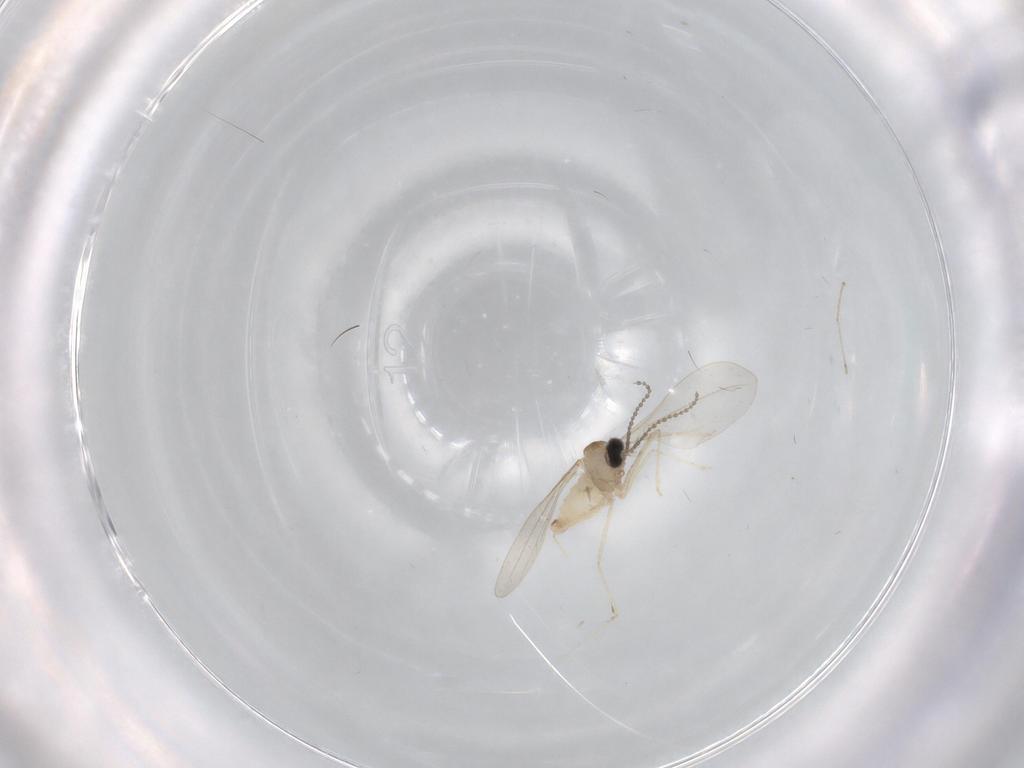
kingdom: Animalia
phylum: Arthropoda
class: Insecta
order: Diptera
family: Cecidomyiidae
